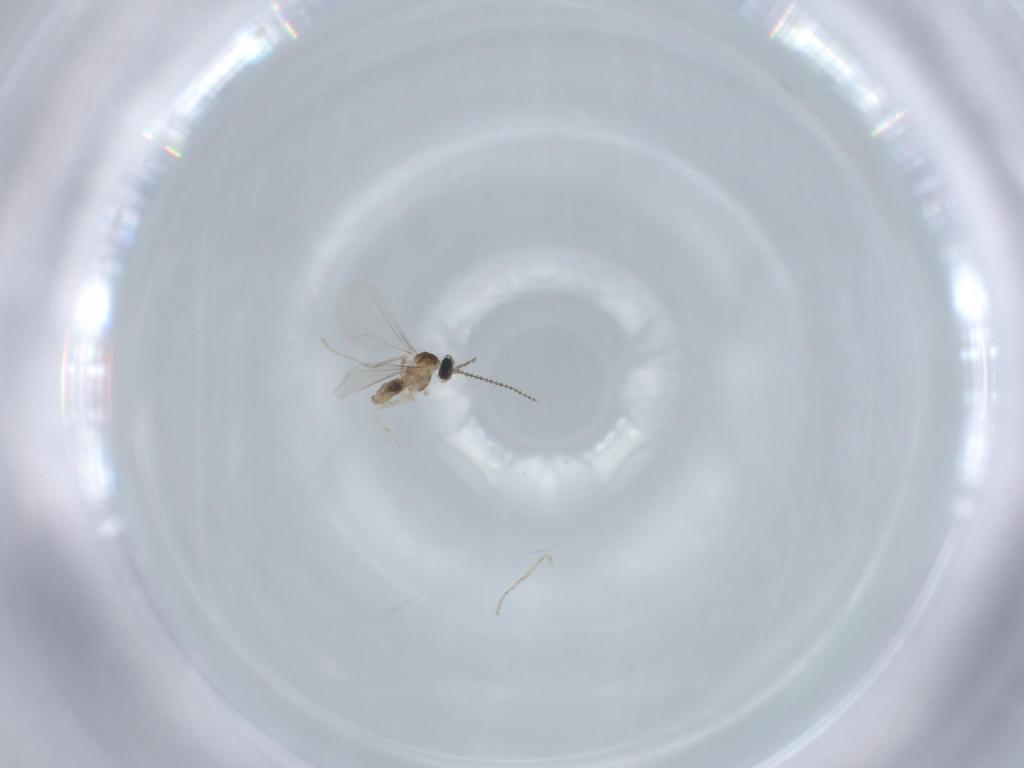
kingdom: Animalia
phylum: Arthropoda
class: Insecta
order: Diptera
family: Cecidomyiidae
